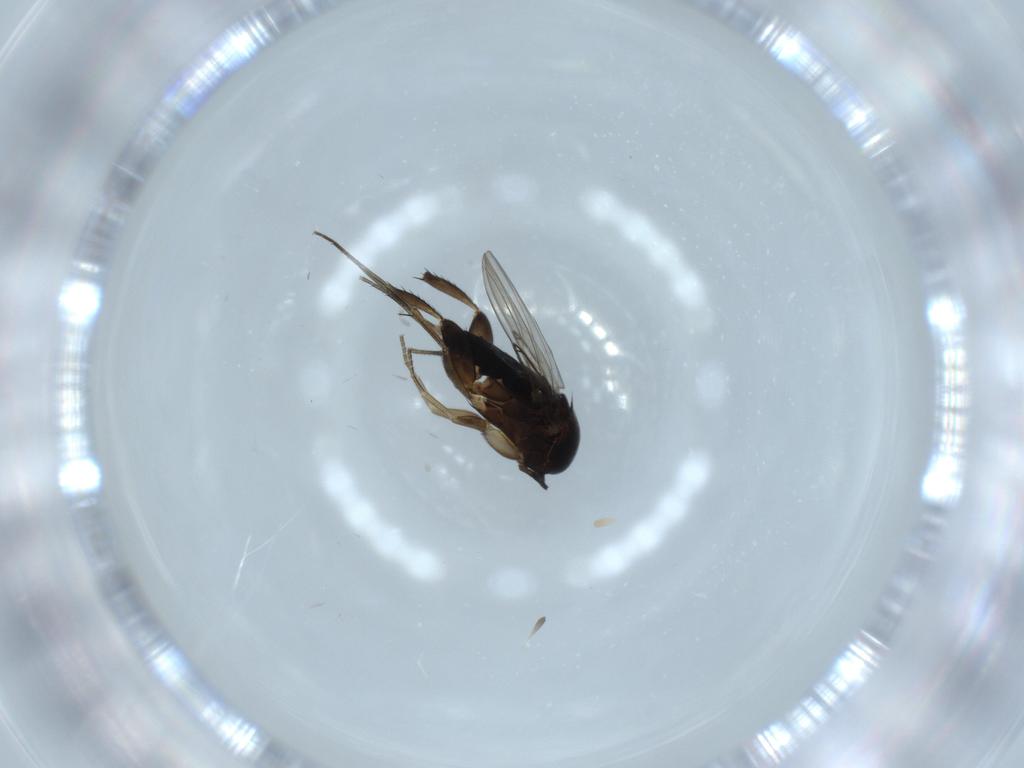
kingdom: Animalia
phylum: Arthropoda
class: Insecta
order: Diptera
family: Phoridae
